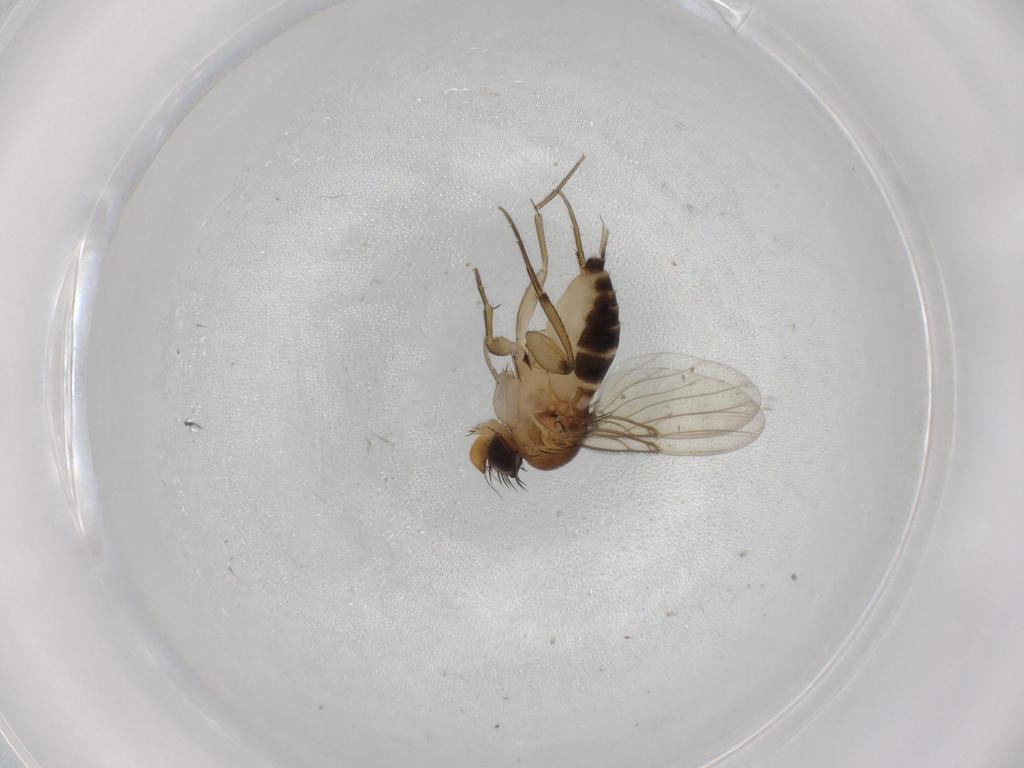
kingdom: Animalia
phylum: Arthropoda
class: Insecta
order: Diptera
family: Phoridae
